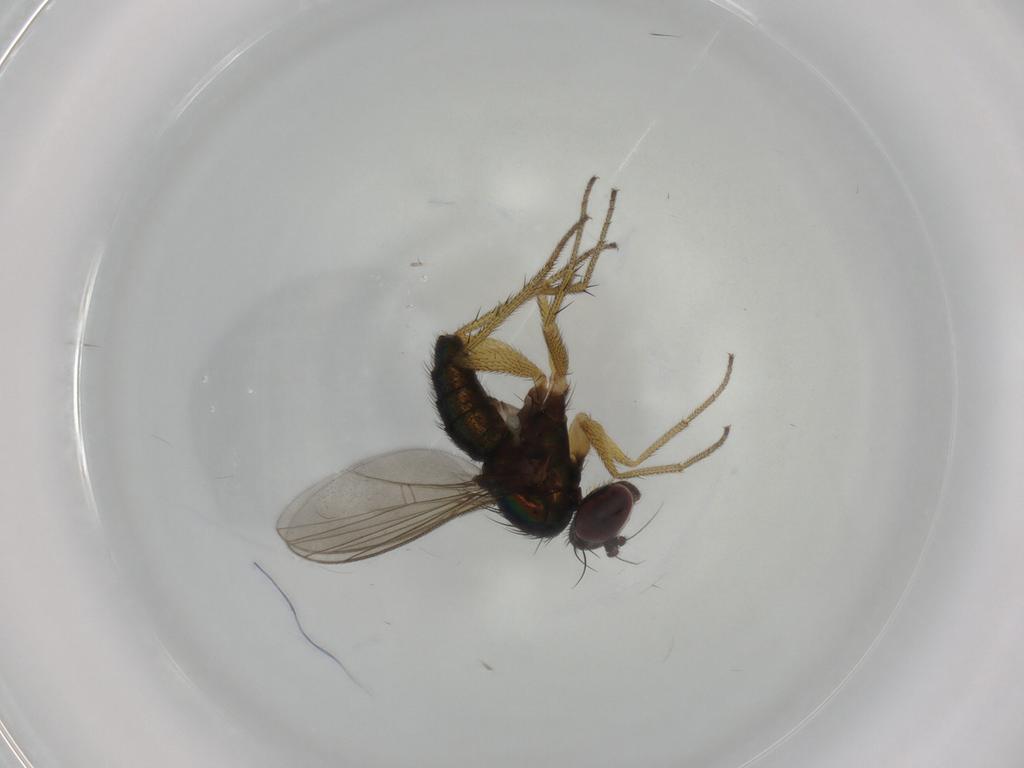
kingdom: Animalia
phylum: Arthropoda
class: Insecta
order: Diptera
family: Dolichopodidae
